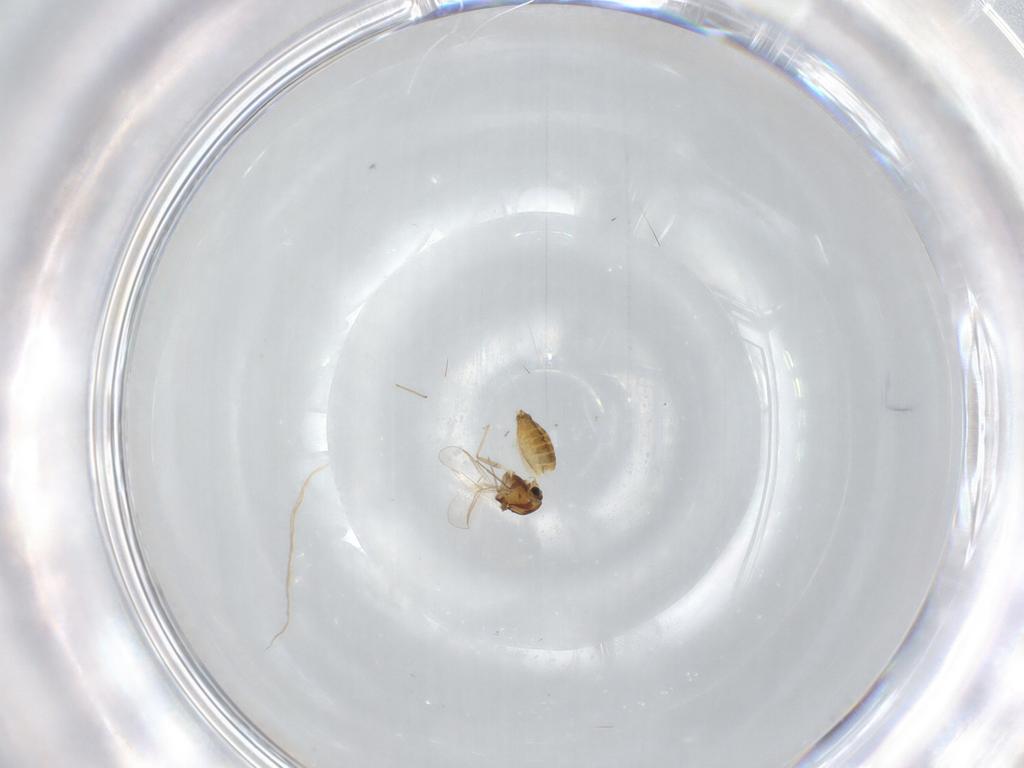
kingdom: Animalia
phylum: Arthropoda
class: Insecta
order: Diptera
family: Chironomidae
